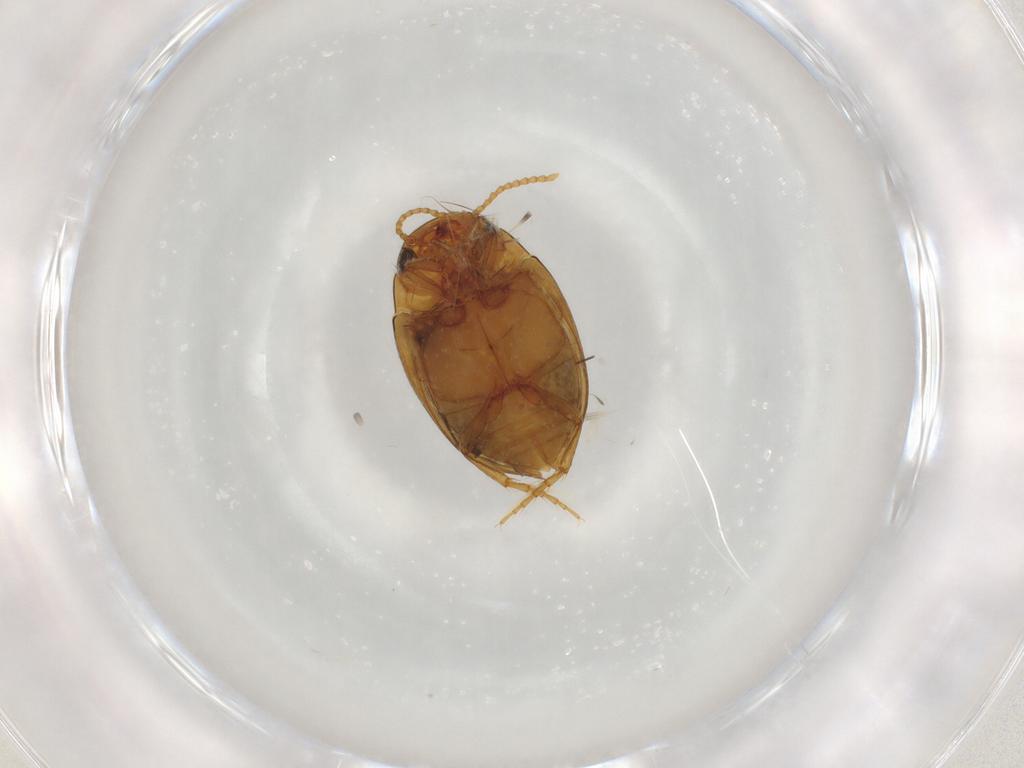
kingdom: Animalia
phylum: Arthropoda
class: Insecta
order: Coleoptera
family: Dytiscidae
